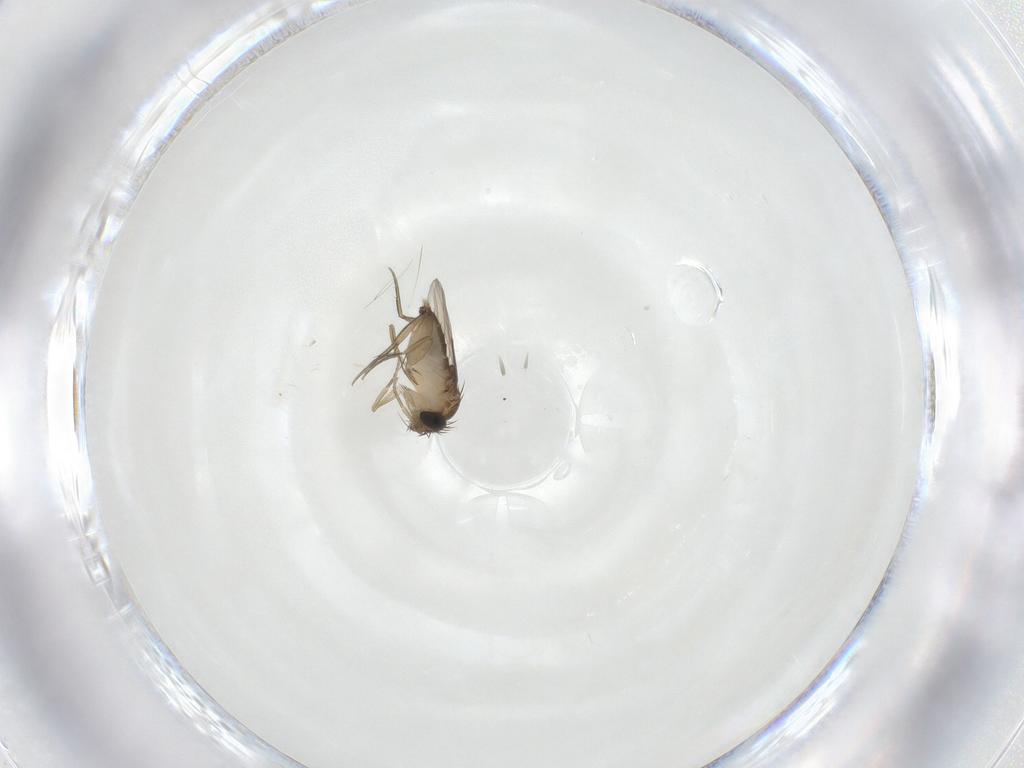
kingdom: Animalia
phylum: Arthropoda
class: Insecta
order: Diptera
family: Phoridae
